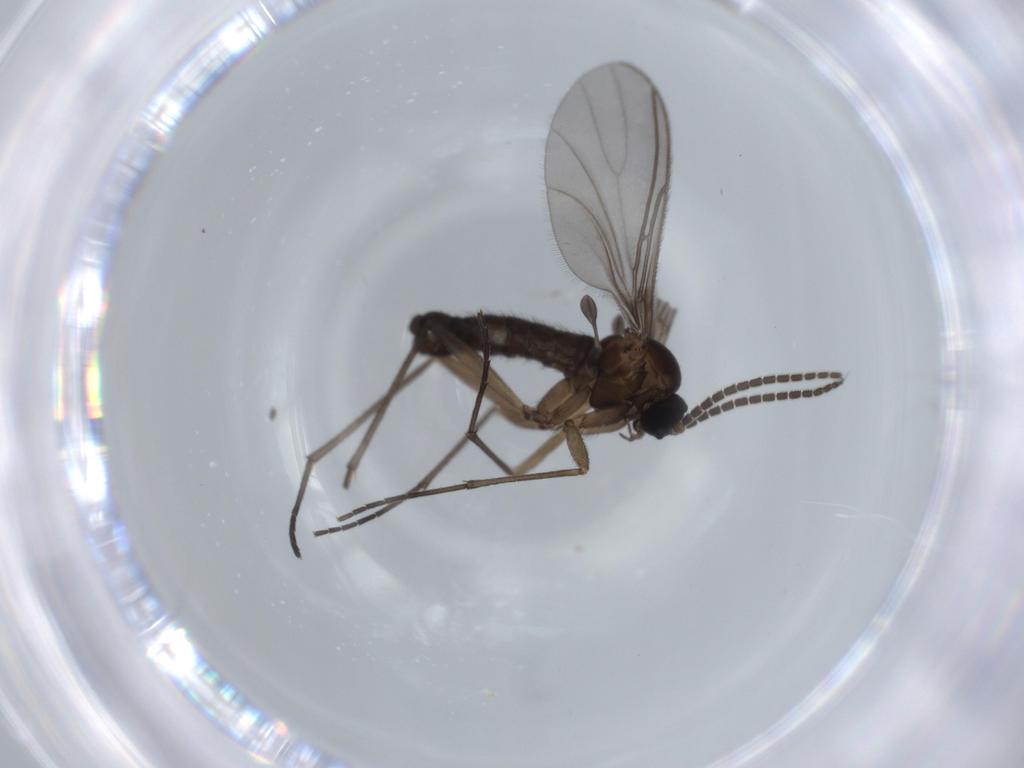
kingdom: Animalia
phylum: Arthropoda
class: Insecta
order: Diptera
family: Sciaridae
